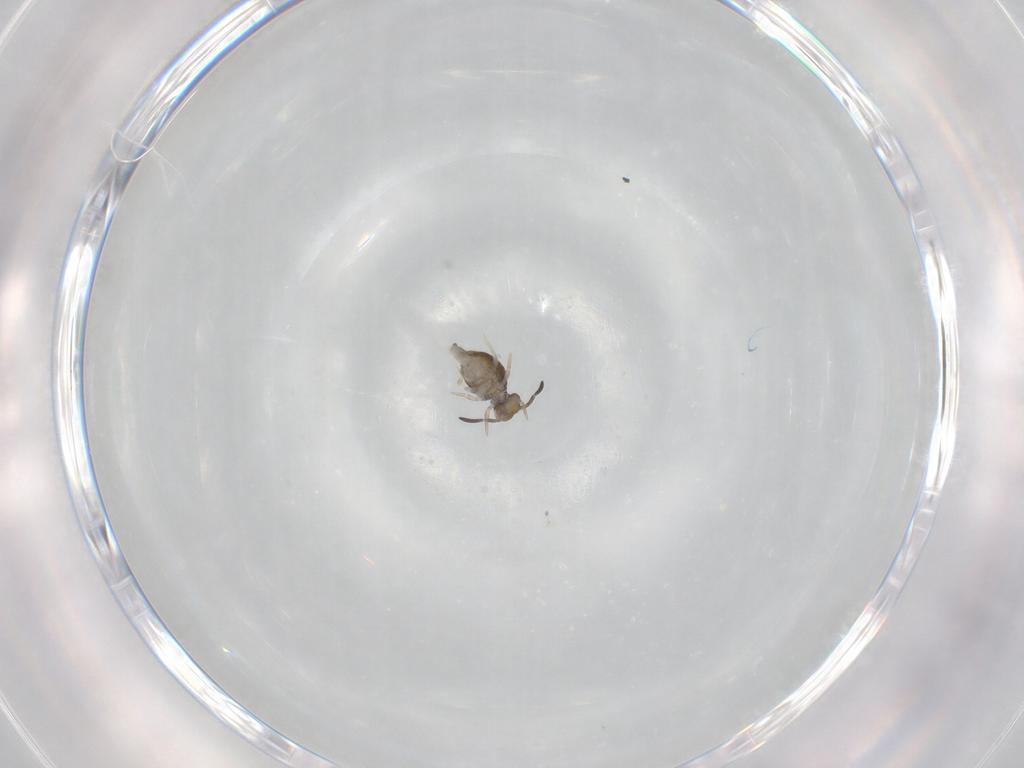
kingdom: Animalia
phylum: Arthropoda
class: Collembola
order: Symphypleona
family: Katiannidae
